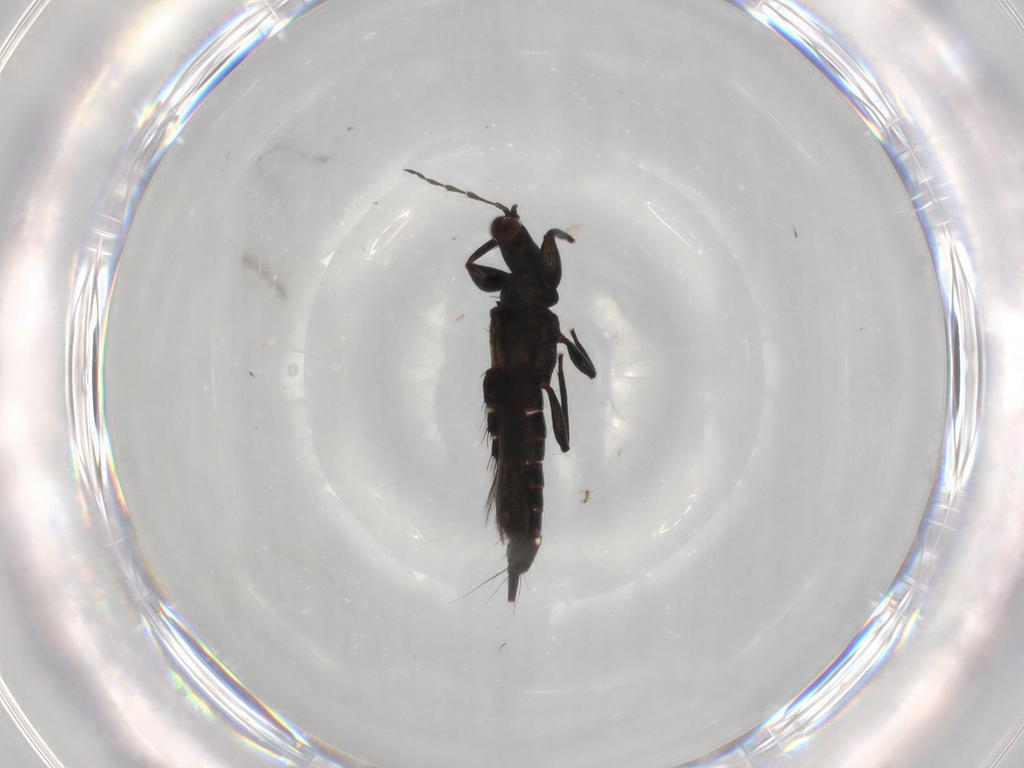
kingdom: Animalia
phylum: Arthropoda
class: Insecta
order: Thysanoptera
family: Phlaeothripidae
